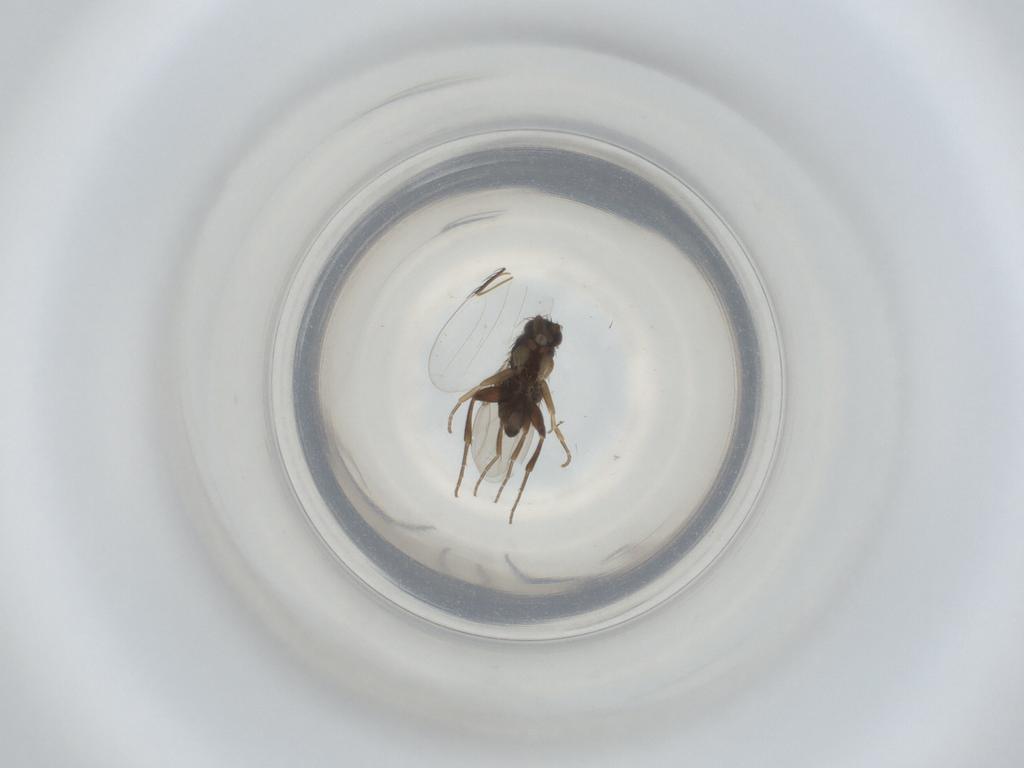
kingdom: Animalia
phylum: Arthropoda
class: Insecta
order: Diptera
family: Phoridae
